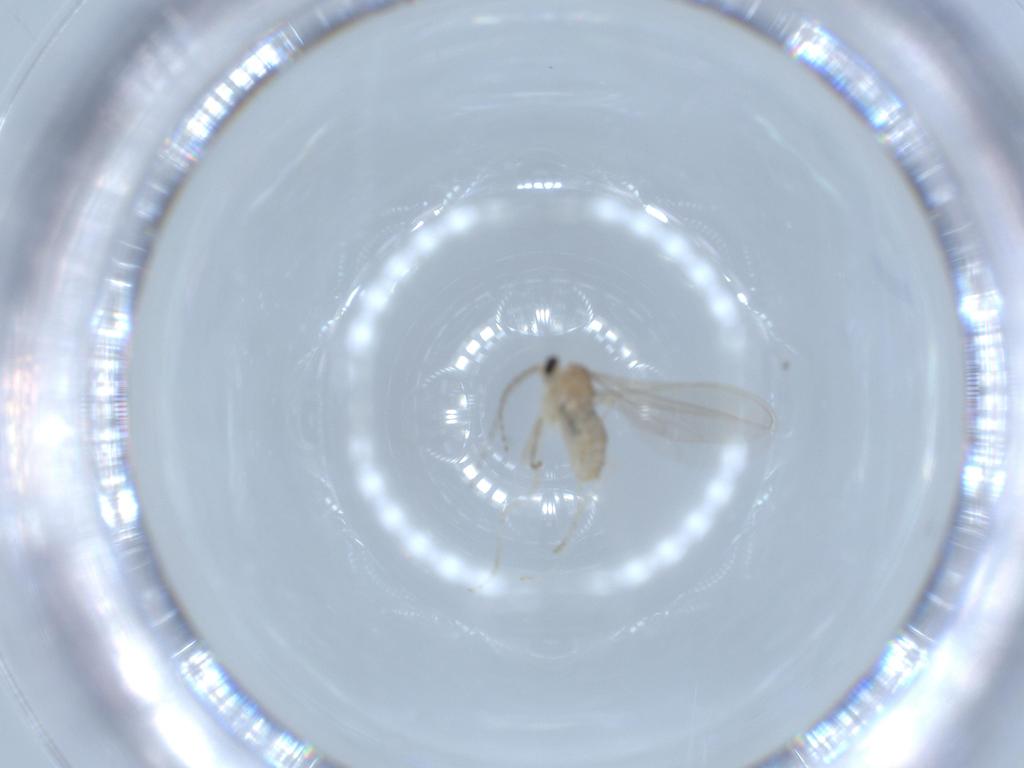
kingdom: Animalia
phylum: Arthropoda
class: Insecta
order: Diptera
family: Cecidomyiidae
